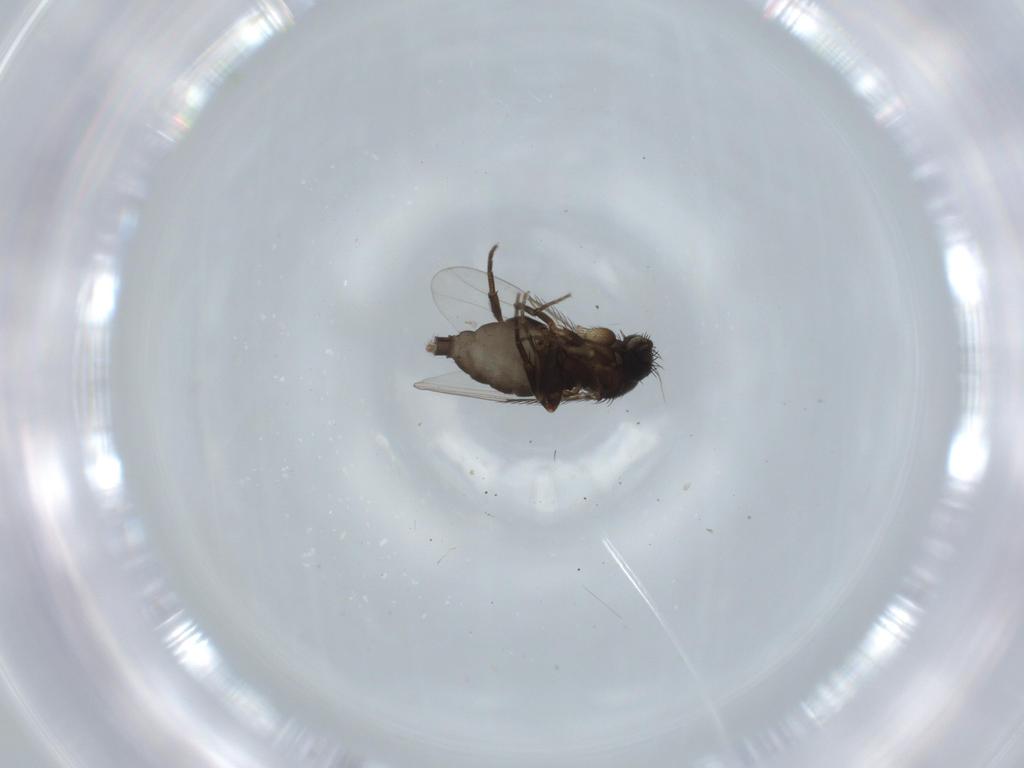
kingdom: Animalia
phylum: Arthropoda
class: Insecta
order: Diptera
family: Phoridae
